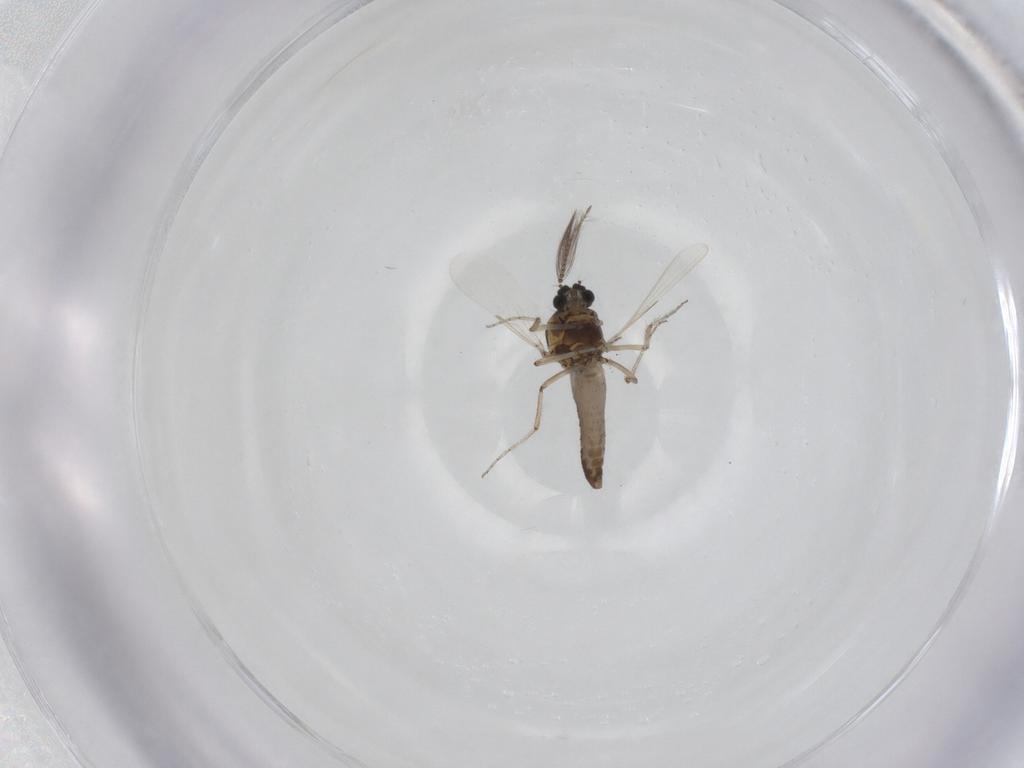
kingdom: Animalia
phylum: Arthropoda
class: Insecta
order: Diptera
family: Ceratopogonidae
